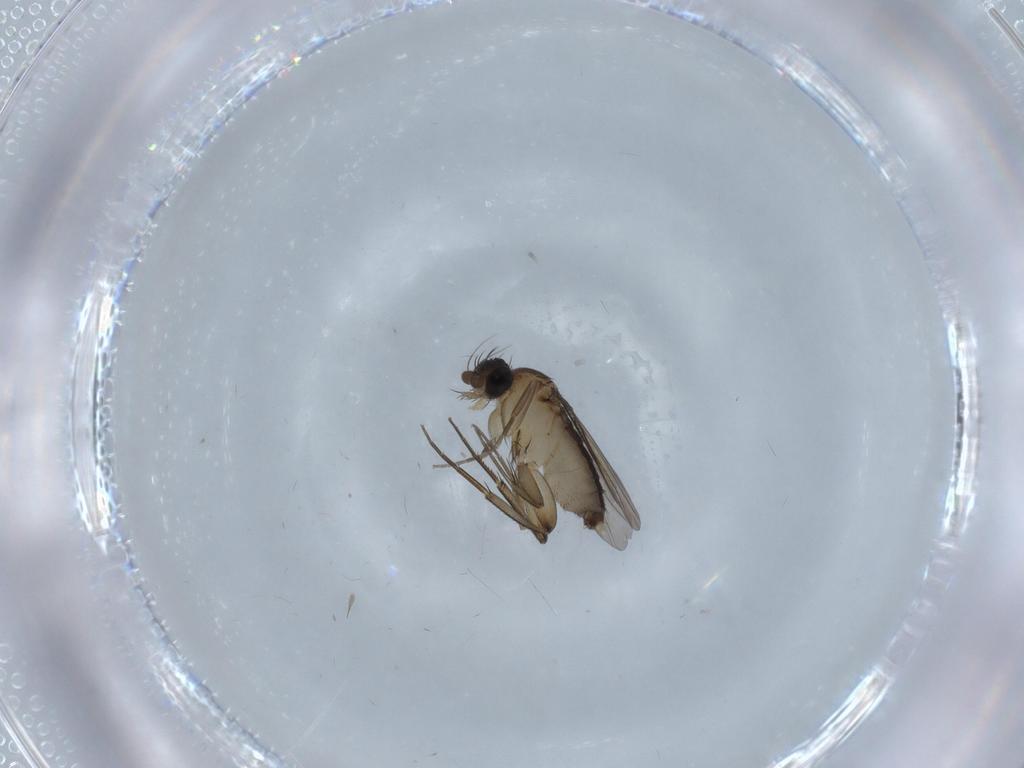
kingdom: Animalia
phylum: Arthropoda
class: Insecta
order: Diptera
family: Phoridae
